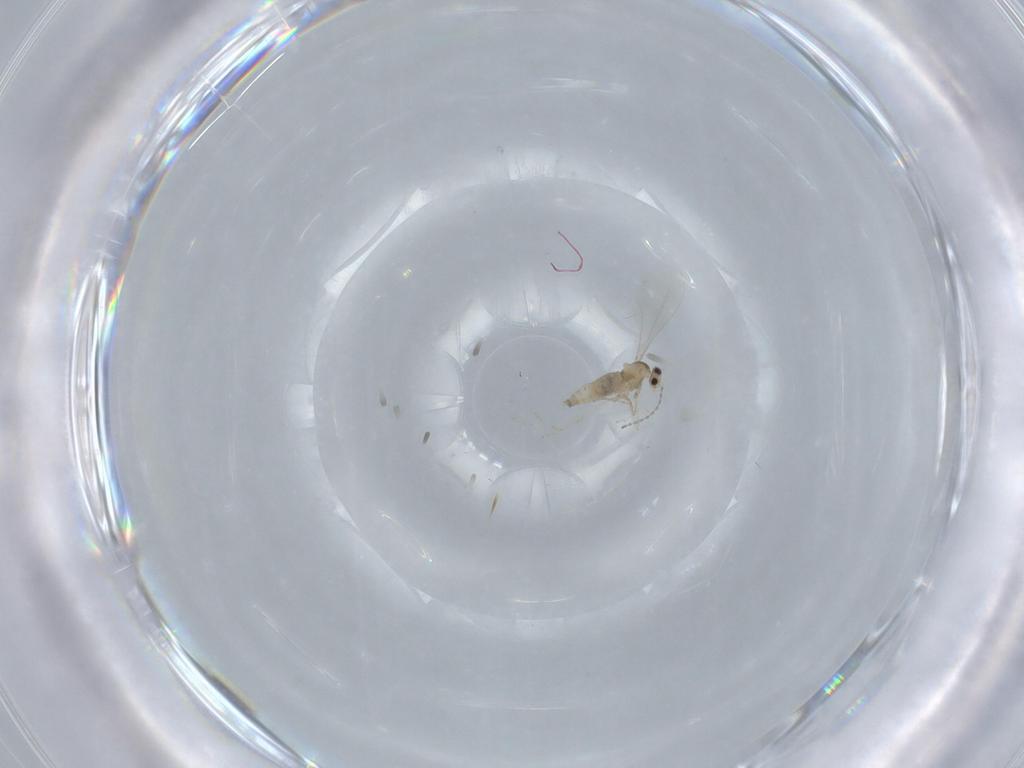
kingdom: Animalia
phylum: Arthropoda
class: Insecta
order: Diptera
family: Cecidomyiidae
